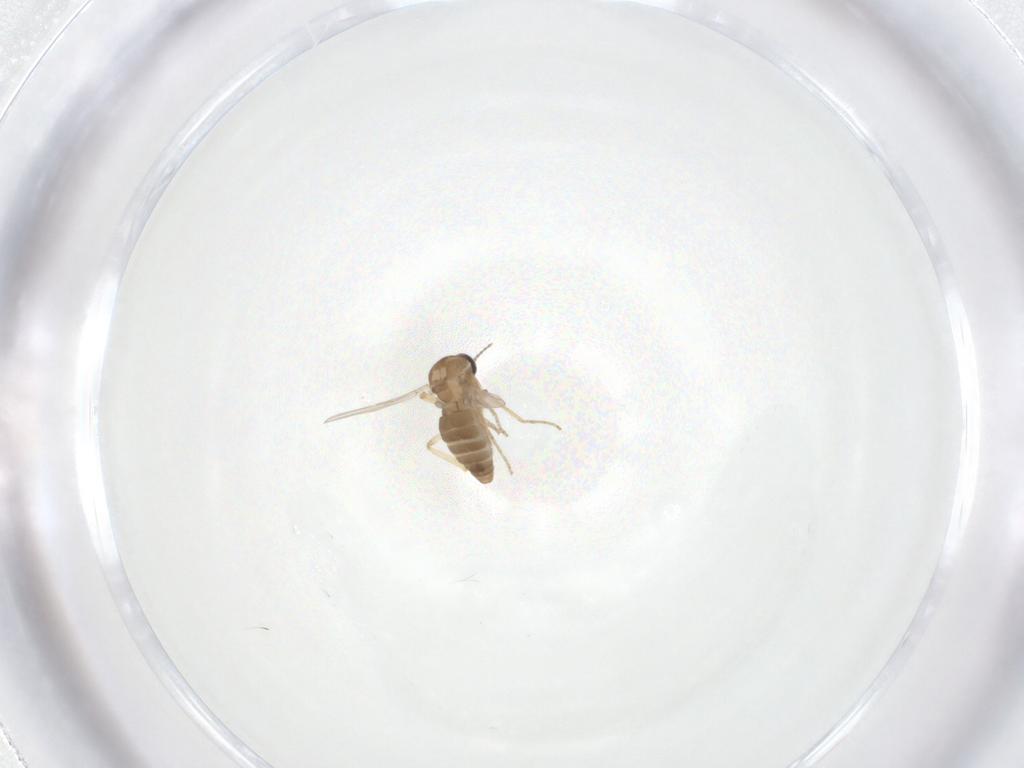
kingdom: Animalia
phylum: Arthropoda
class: Insecta
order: Diptera
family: Ceratopogonidae
